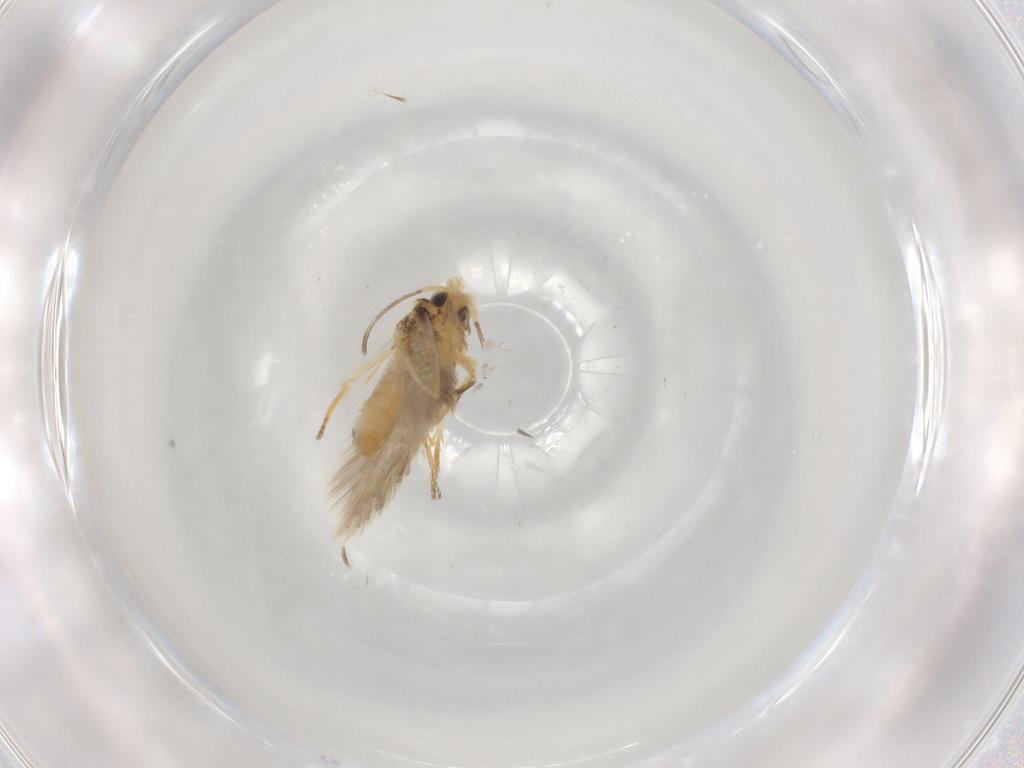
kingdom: Animalia
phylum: Arthropoda
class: Insecta
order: Lepidoptera
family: Nepticulidae
